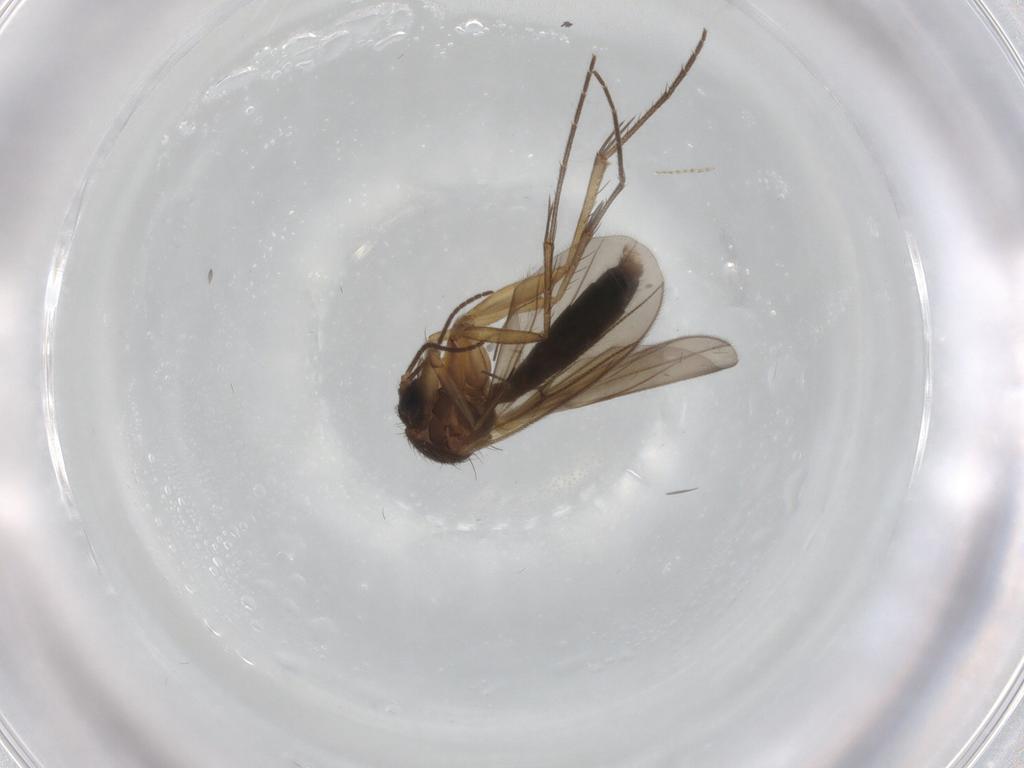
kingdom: Animalia
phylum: Arthropoda
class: Insecta
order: Diptera
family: Mycetophilidae
